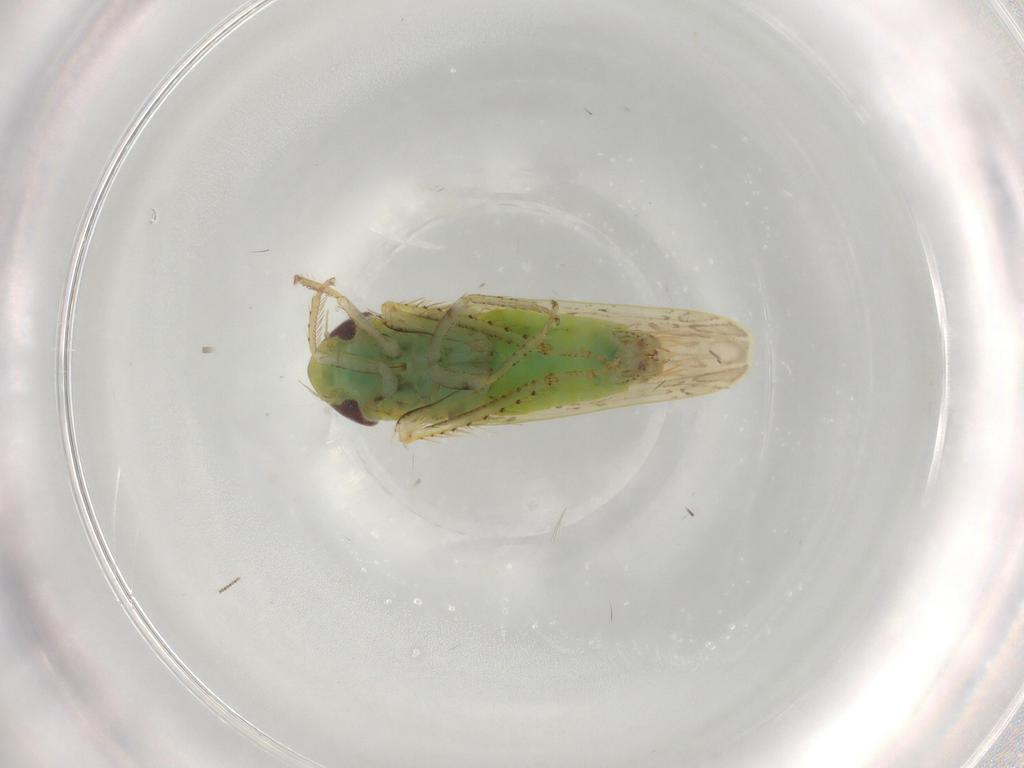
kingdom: Animalia
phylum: Arthropoda
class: Insecta
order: Hemiptera
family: Cicadellidae
